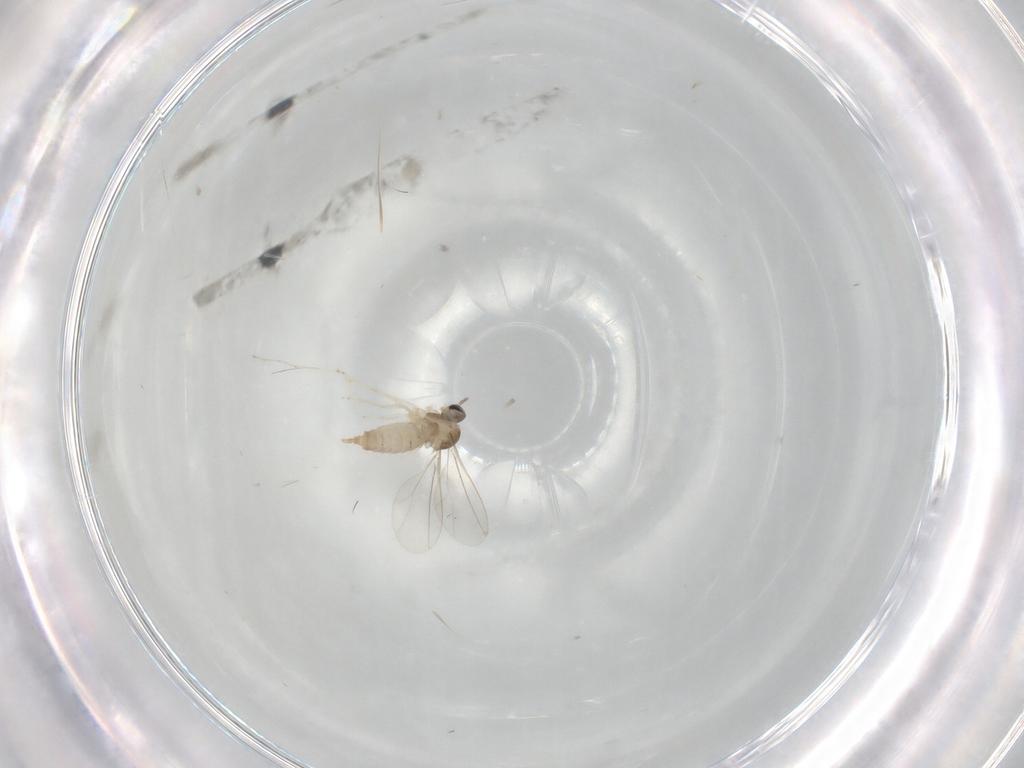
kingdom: Animalia
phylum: Arthropoda
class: Insecta
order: Diptera
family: Cecidomyiidae
